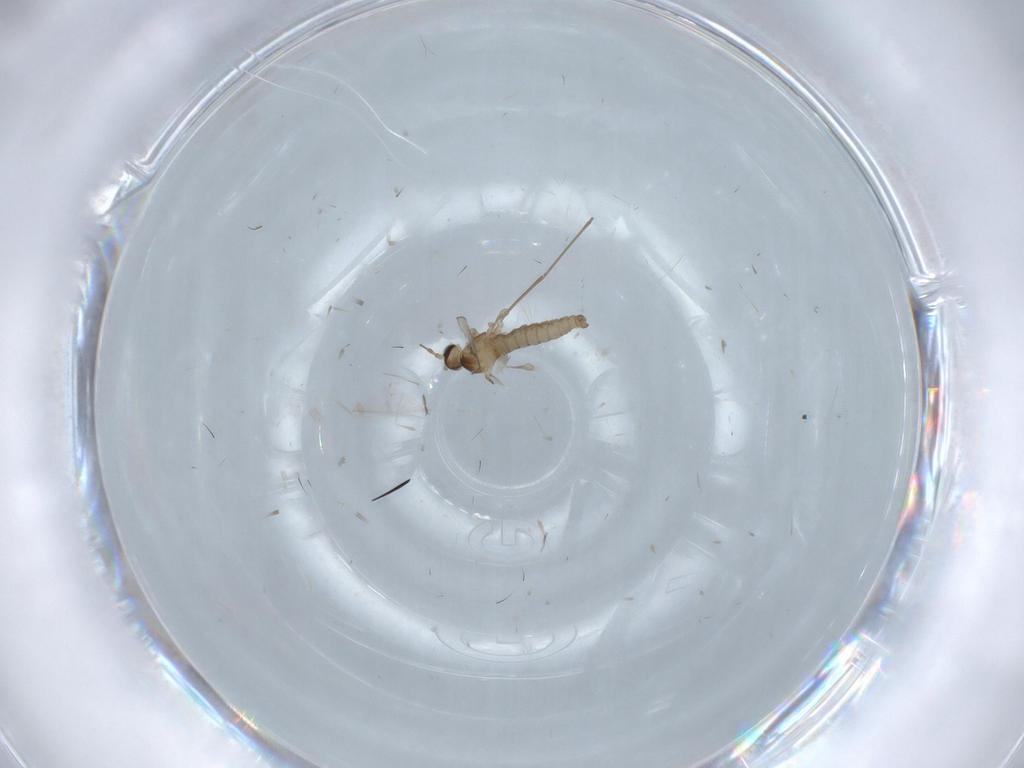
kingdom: Animalia
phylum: Arthropoda
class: Insecta
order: Diptera
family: Cecidomyiidae
